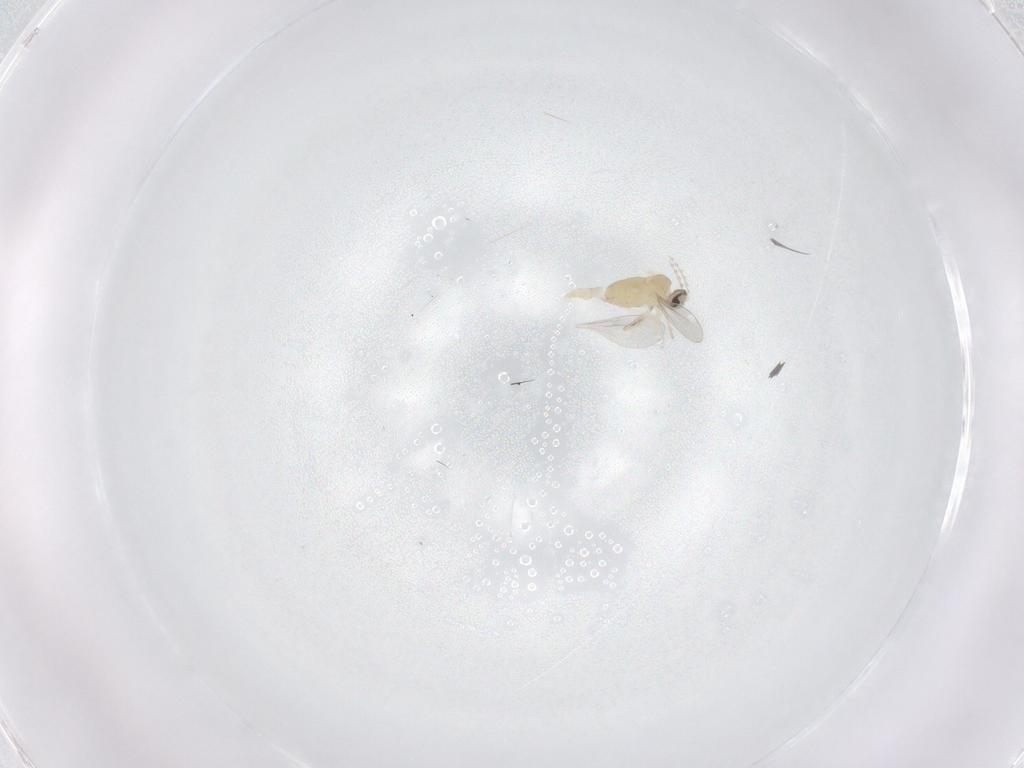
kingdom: Animalia
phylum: Arthropoda
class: Insecta
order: Diptera
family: Cecidomyiidae
